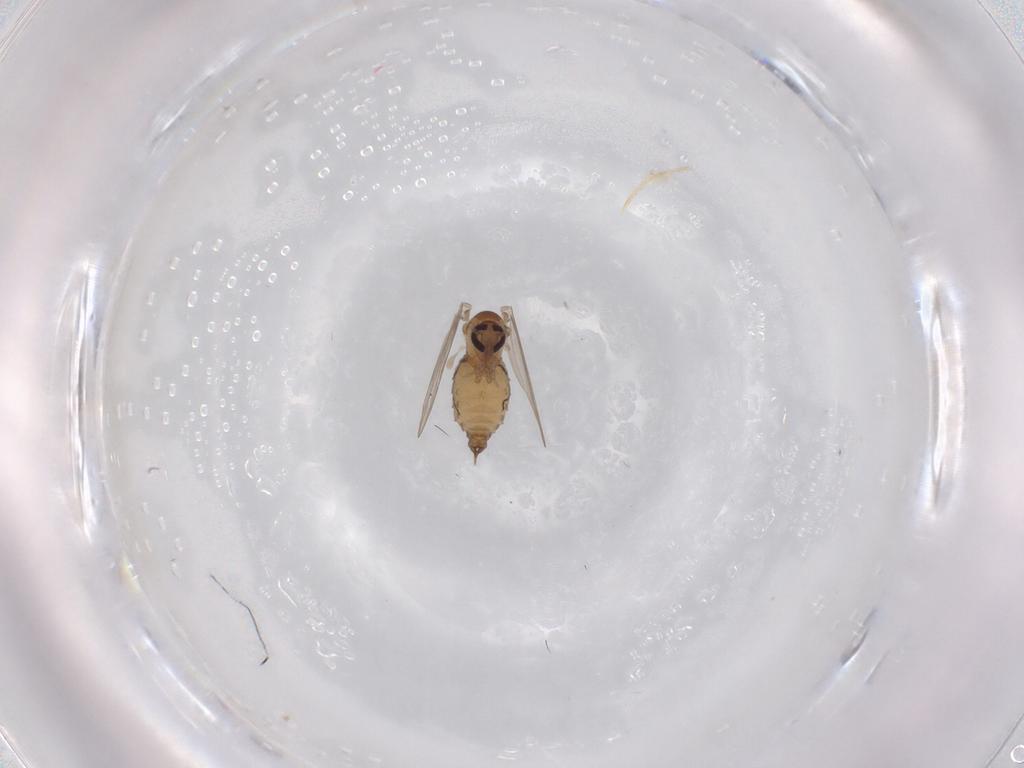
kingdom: Animalia
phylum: Arthropoda
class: Insecta
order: Diptera
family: Psychodidae
